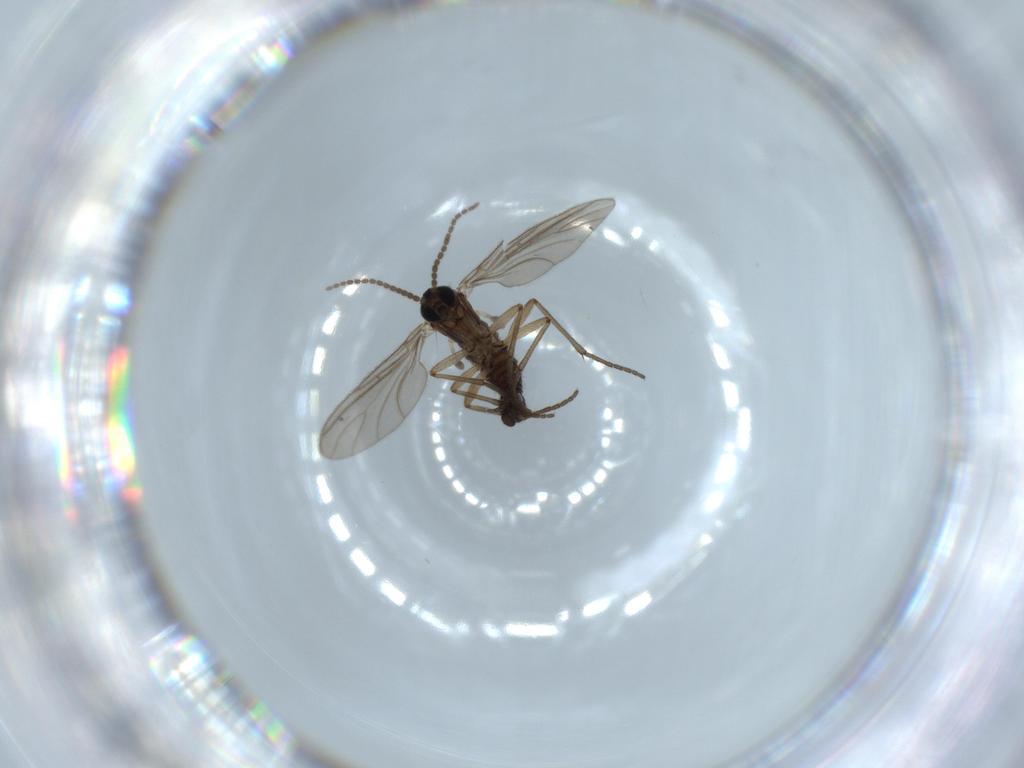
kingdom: Animalia
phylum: Arthropoda
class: Insecta
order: Diptera
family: Sciaridae
